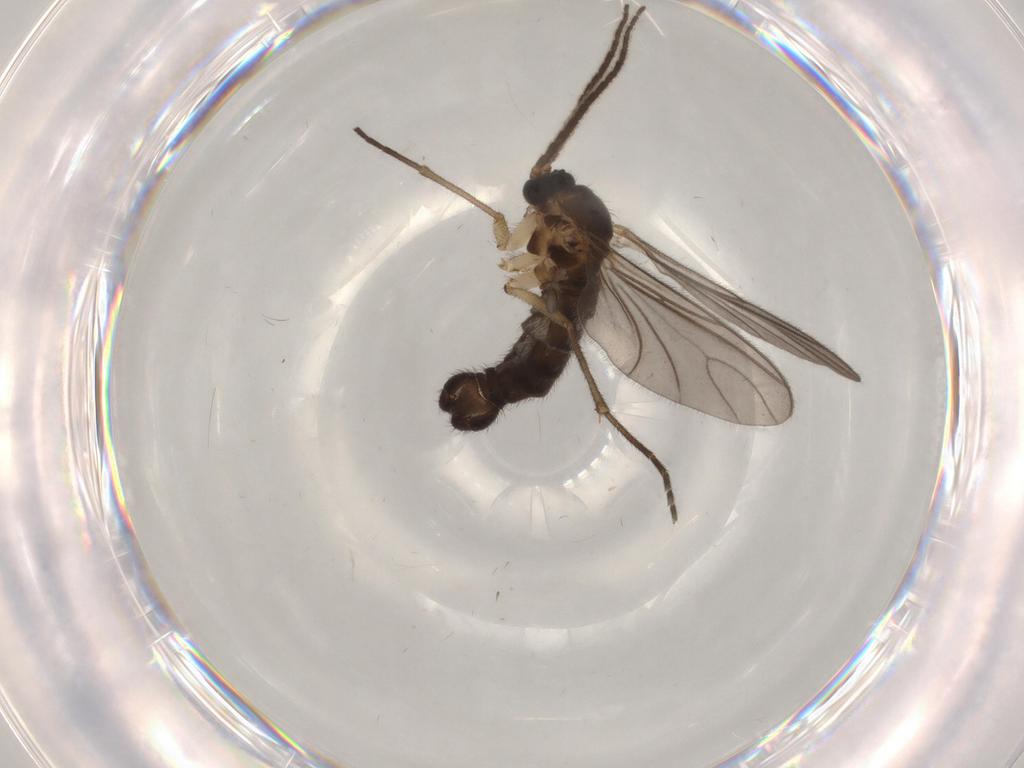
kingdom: Animalia
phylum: Arthropoda
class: Insecta
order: Diptera
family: Sciaridae
